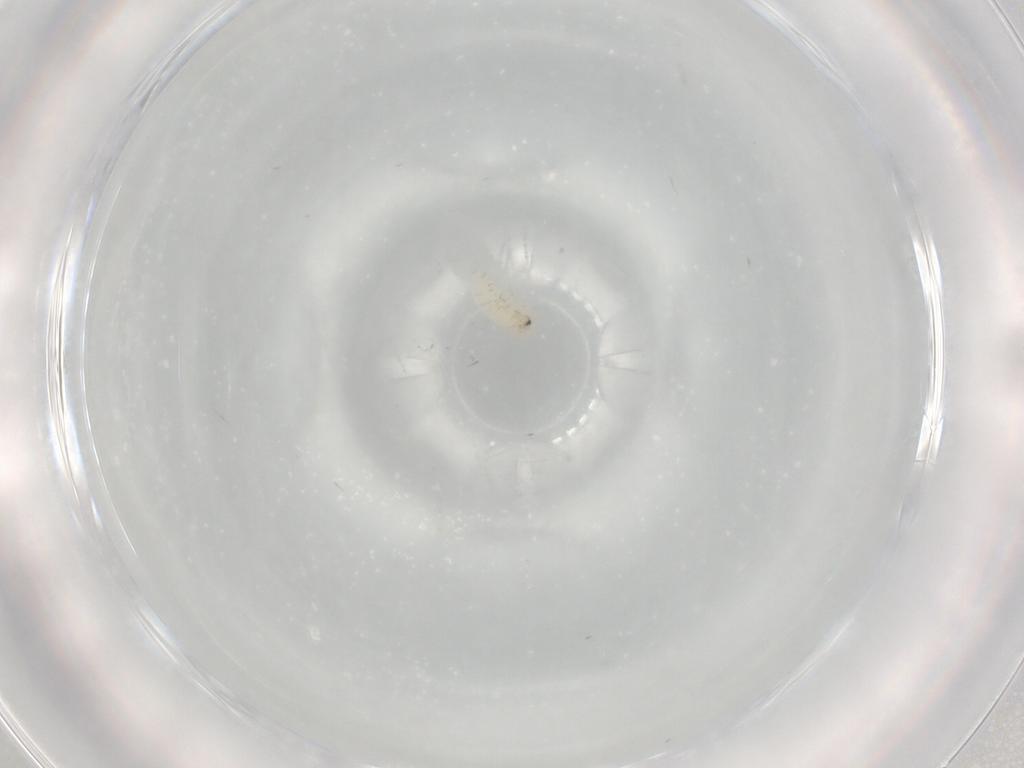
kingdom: Animalia
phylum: Arthropoda
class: Insecta
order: Coleoptera
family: Chrysomelidae
